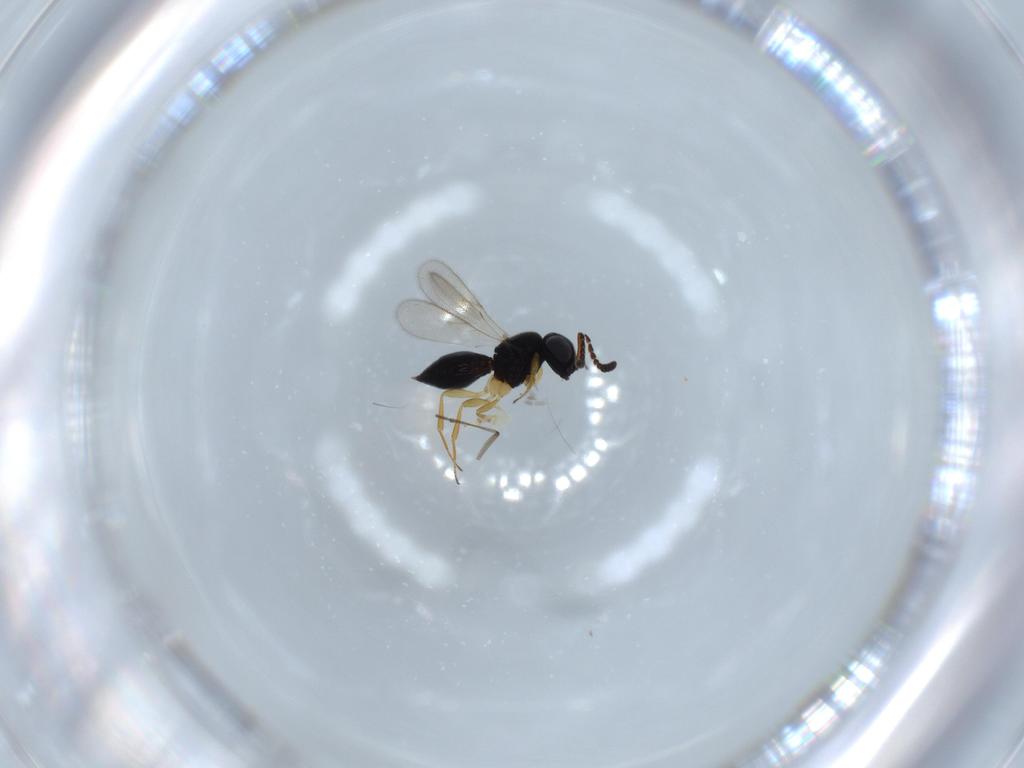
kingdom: Animalia
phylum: Arthropoda
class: Insecta
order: Hymenoptera
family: Scelionidae
